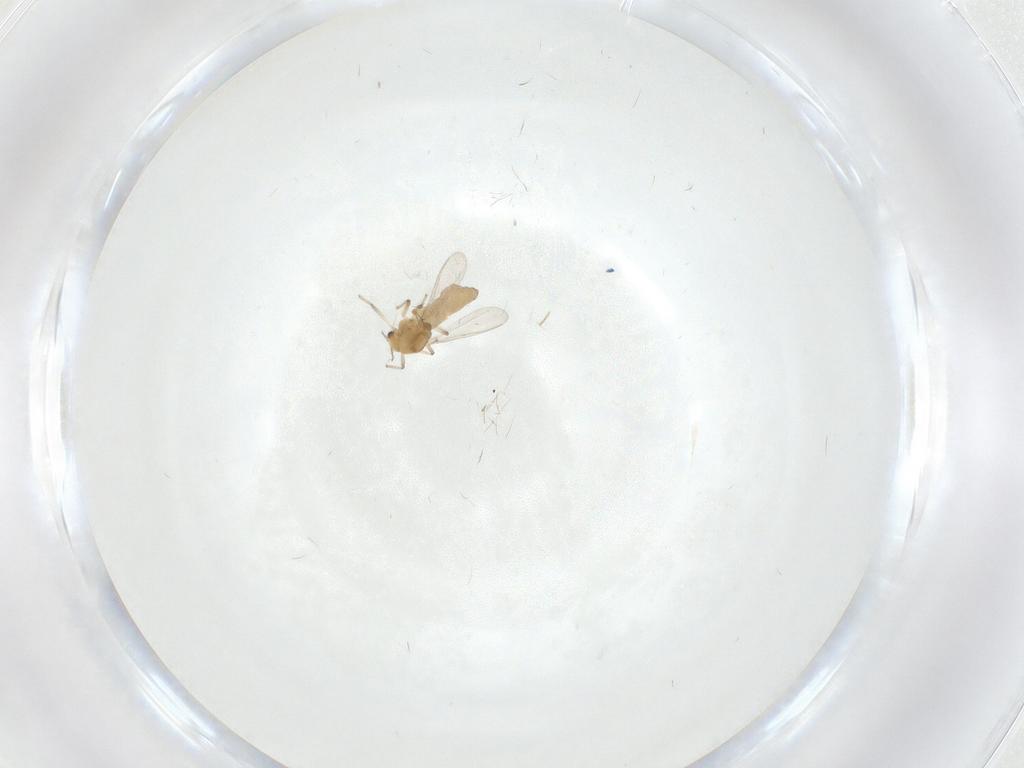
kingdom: Animalia
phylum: Arthropoda
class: Insecta
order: Diptera
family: Chironomidae
